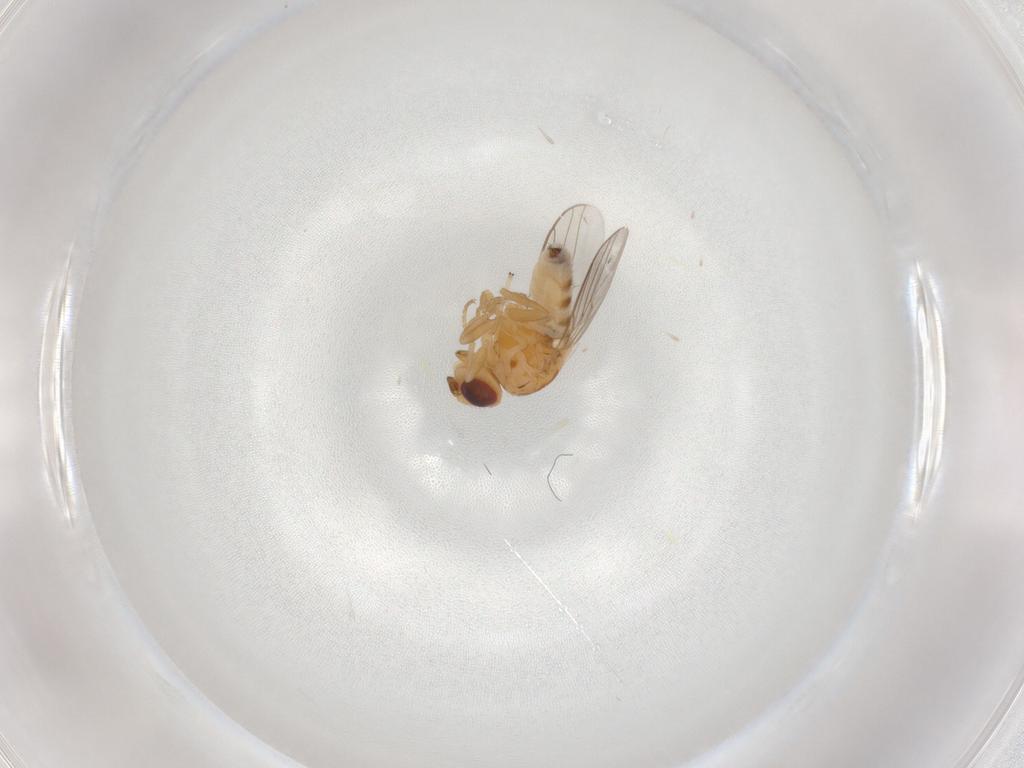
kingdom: Animalia
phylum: Arthropoda
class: Insecta
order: Diptera
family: Chloropidae
